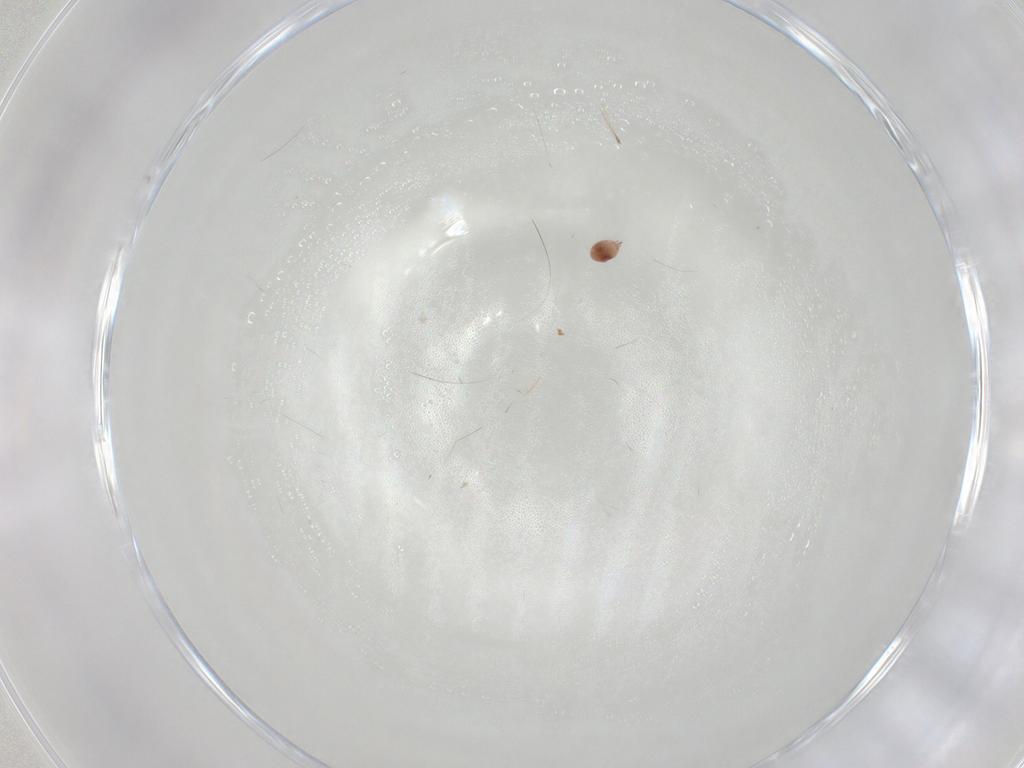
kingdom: Animalia
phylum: Arthropoda
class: Arachnida
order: Trombidiformes
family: Eupodidae
